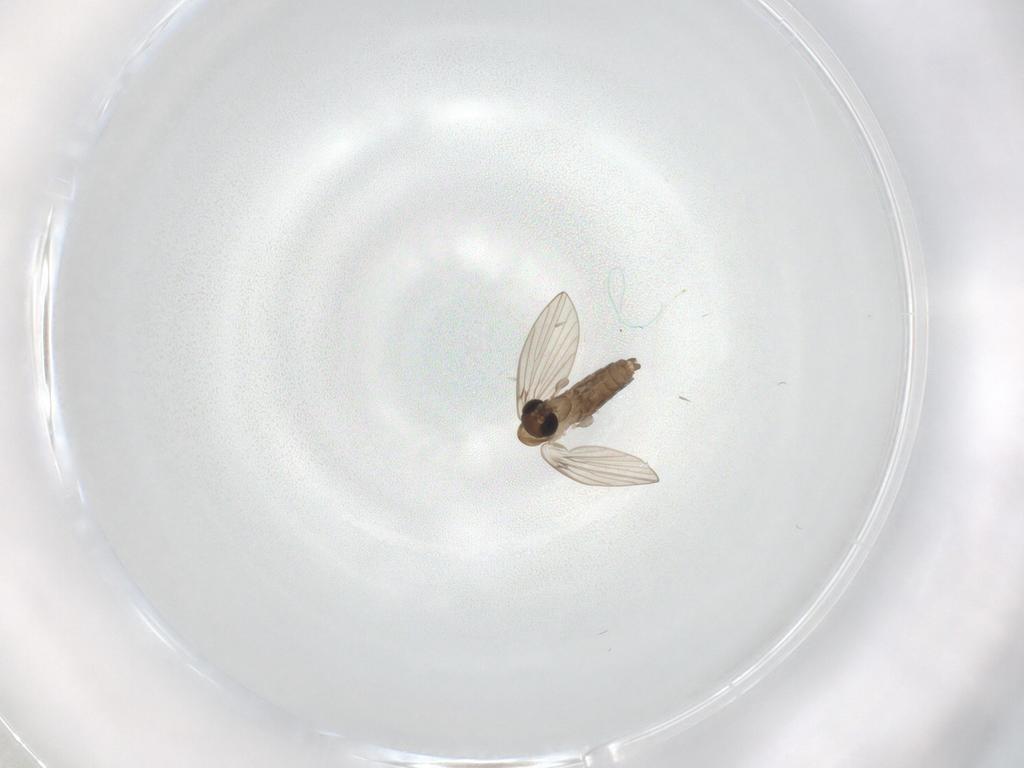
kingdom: Animalia
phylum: Arthropoda
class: Insecta
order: Diptera
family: Psychodidae
